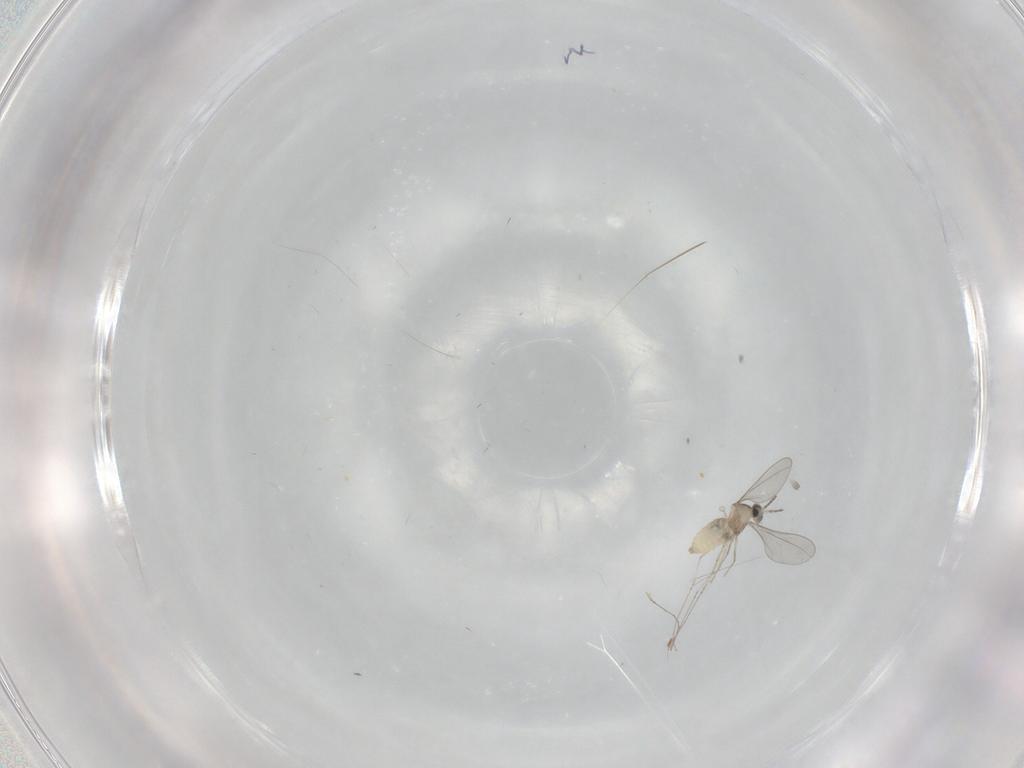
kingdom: Animalia
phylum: Arthropoda
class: Insecta
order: Diptera
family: Cecidomyiidae
